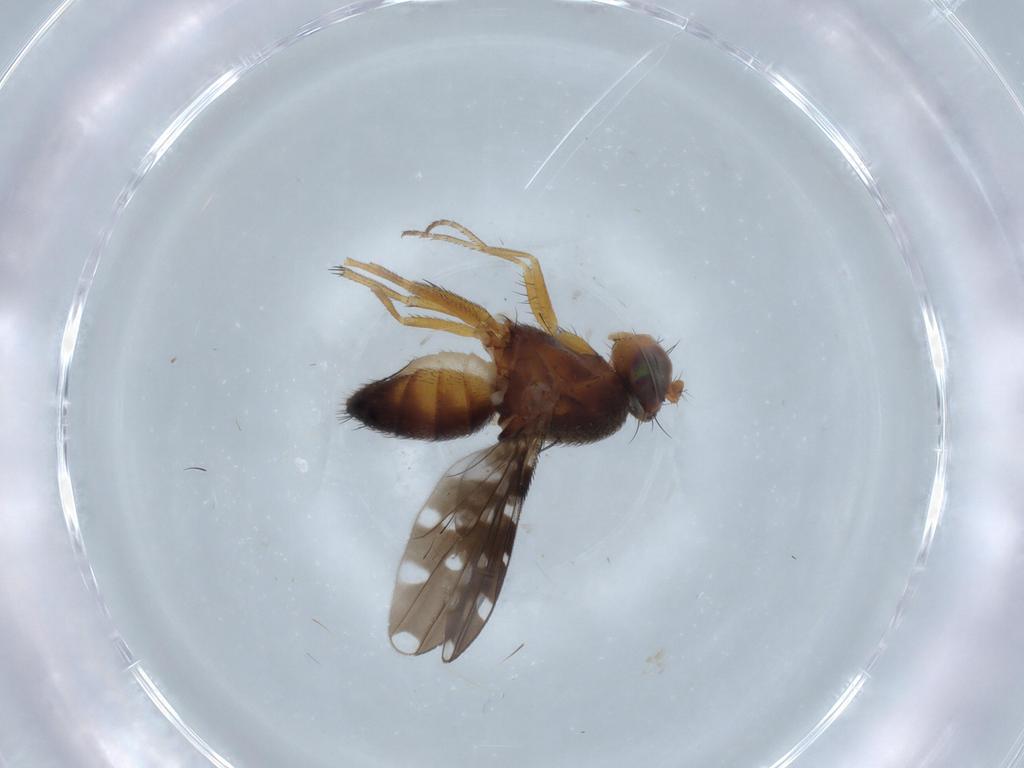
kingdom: Animalia
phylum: Arthropoda
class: Insecta
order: Diptera
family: Ephydridae
